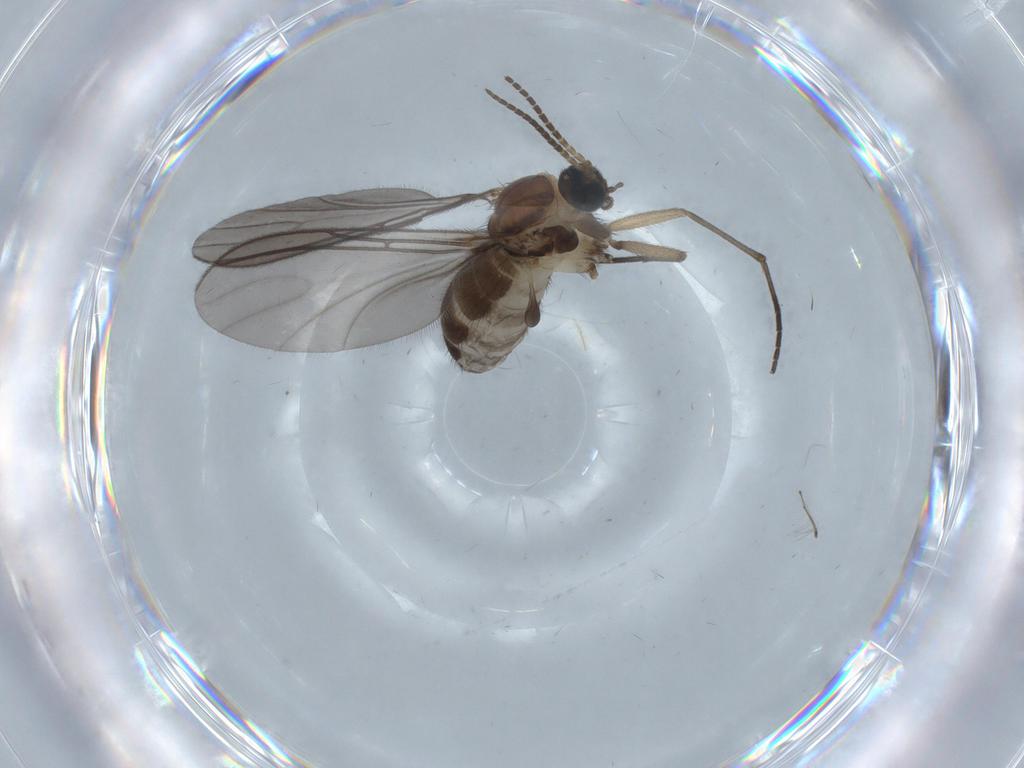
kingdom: Animalia
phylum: Arthropoda
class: Insecta
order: Diptera
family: Sciaridae
